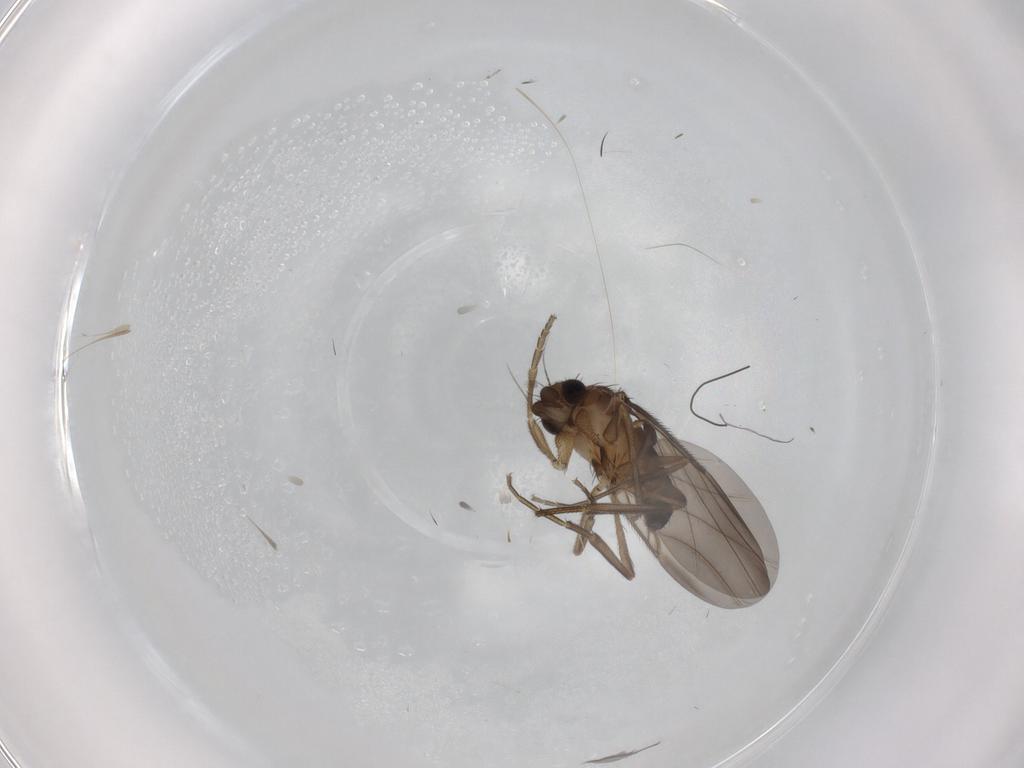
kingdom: Animalia
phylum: Arthropoda
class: Insecta
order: Diptera
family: Phoridae
